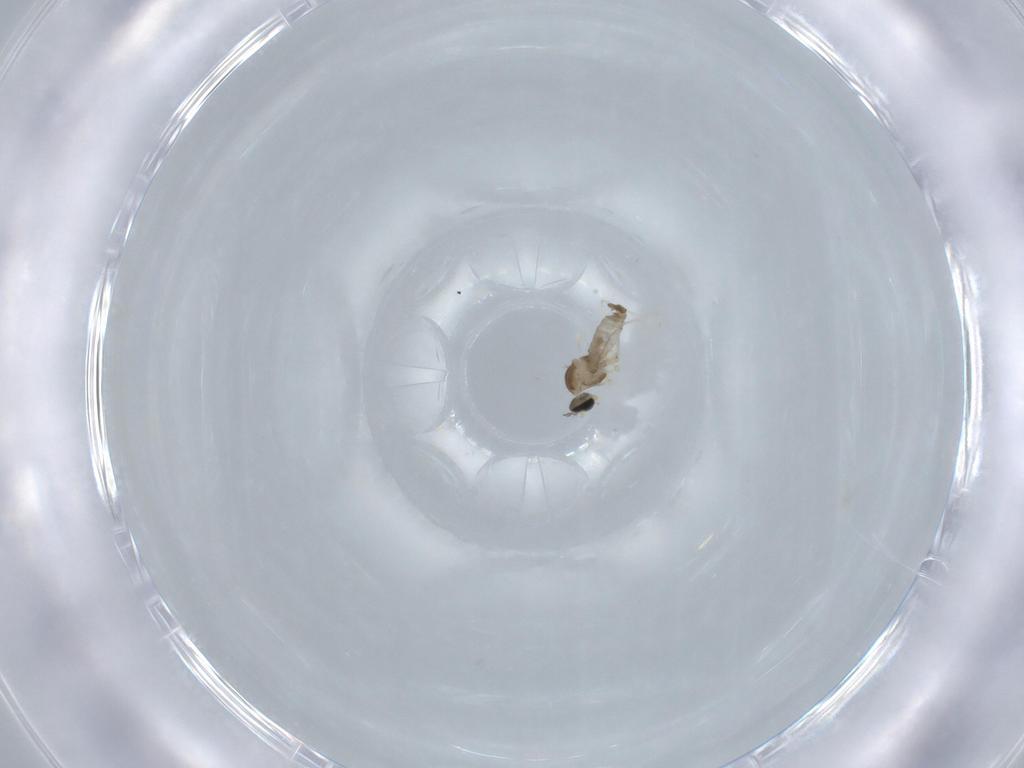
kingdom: Animalia
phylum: Arthropoda
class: Insecta
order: Diptera
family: Cecidomyiidae
